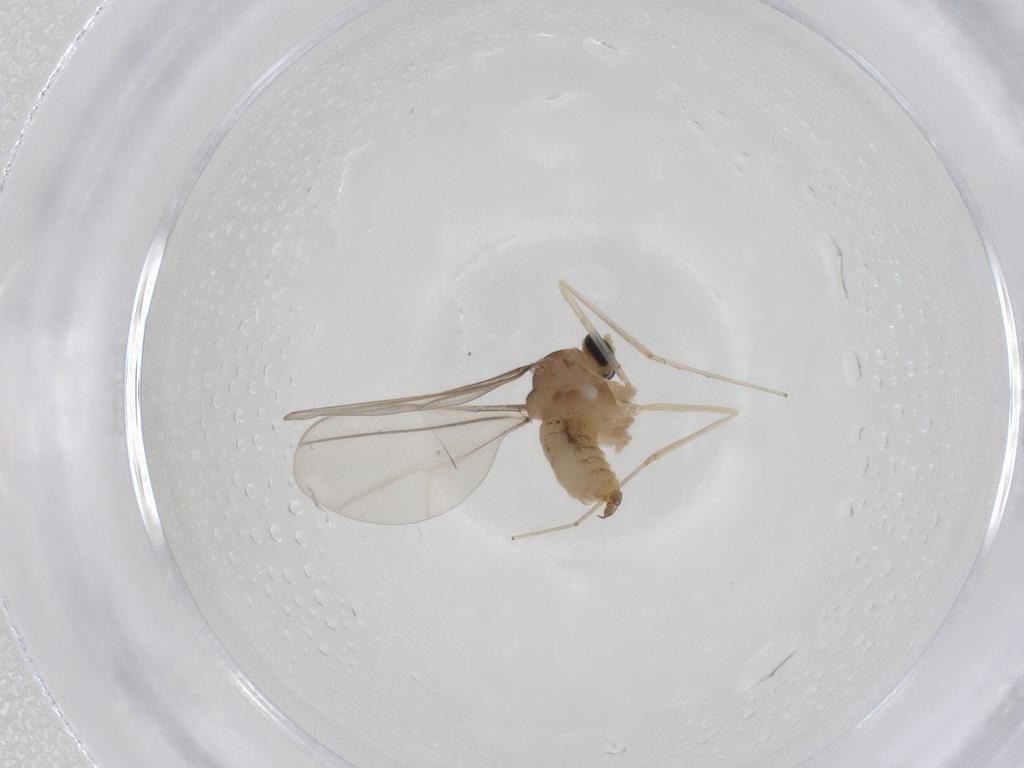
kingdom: Animalia
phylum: Arthropoda
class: Insecta
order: Diptera
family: Cecidomyiidae
